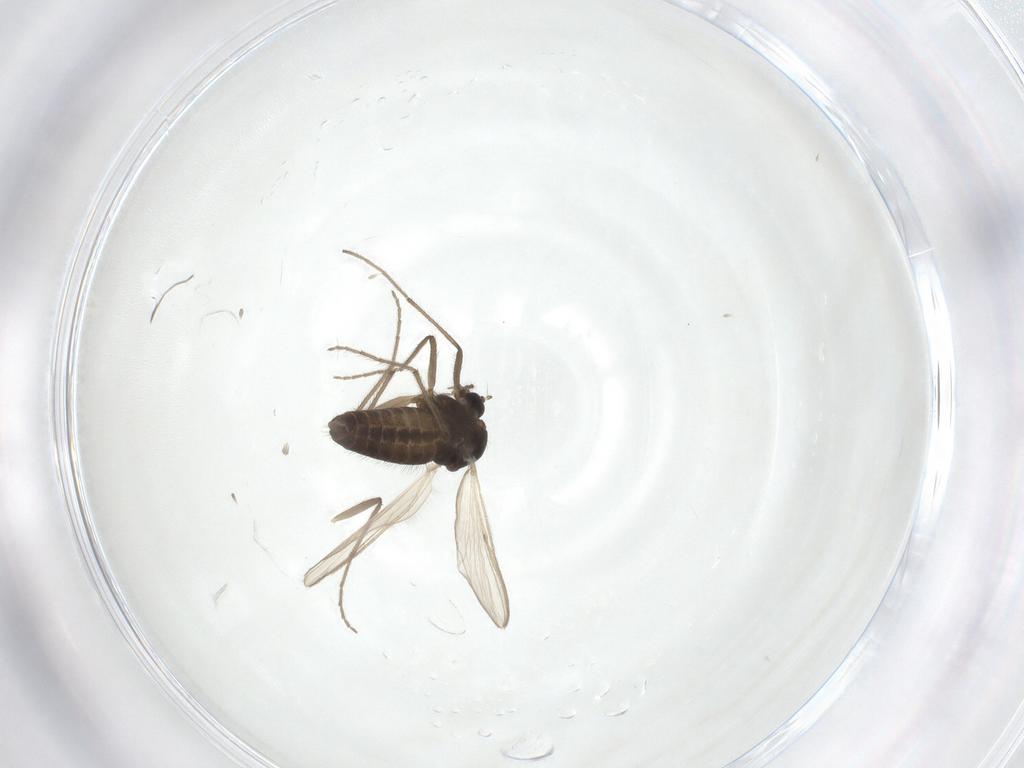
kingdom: Animalia
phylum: Arthropoda
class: Insecta
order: Diptera
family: Chironomidae
